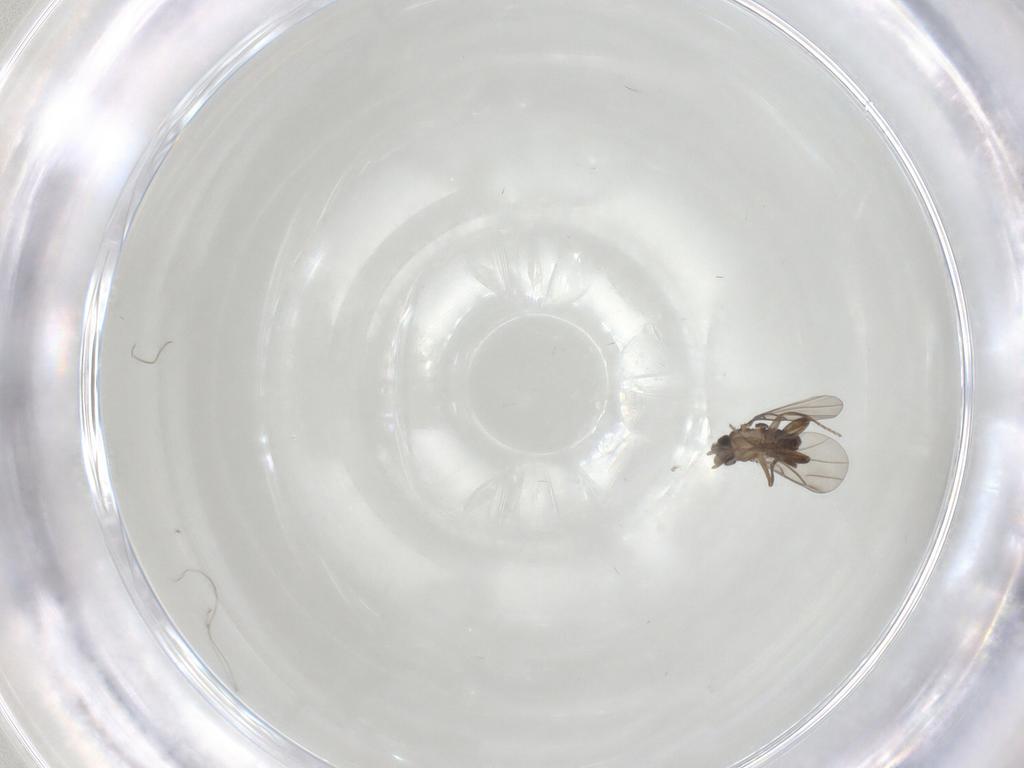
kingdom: Animalia
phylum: Arthropoda
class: Insecta
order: Diptera
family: Phoridae
